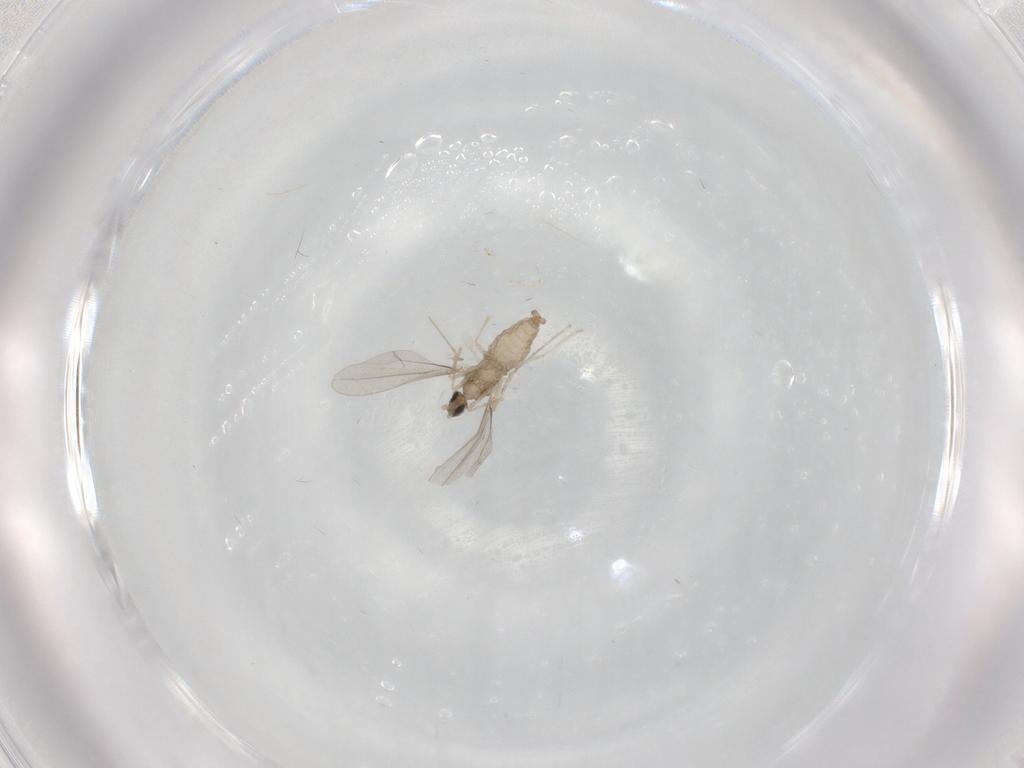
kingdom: Animalia
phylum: Arthropoda
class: Insecta
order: Diptera
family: Cecidomyiidae
